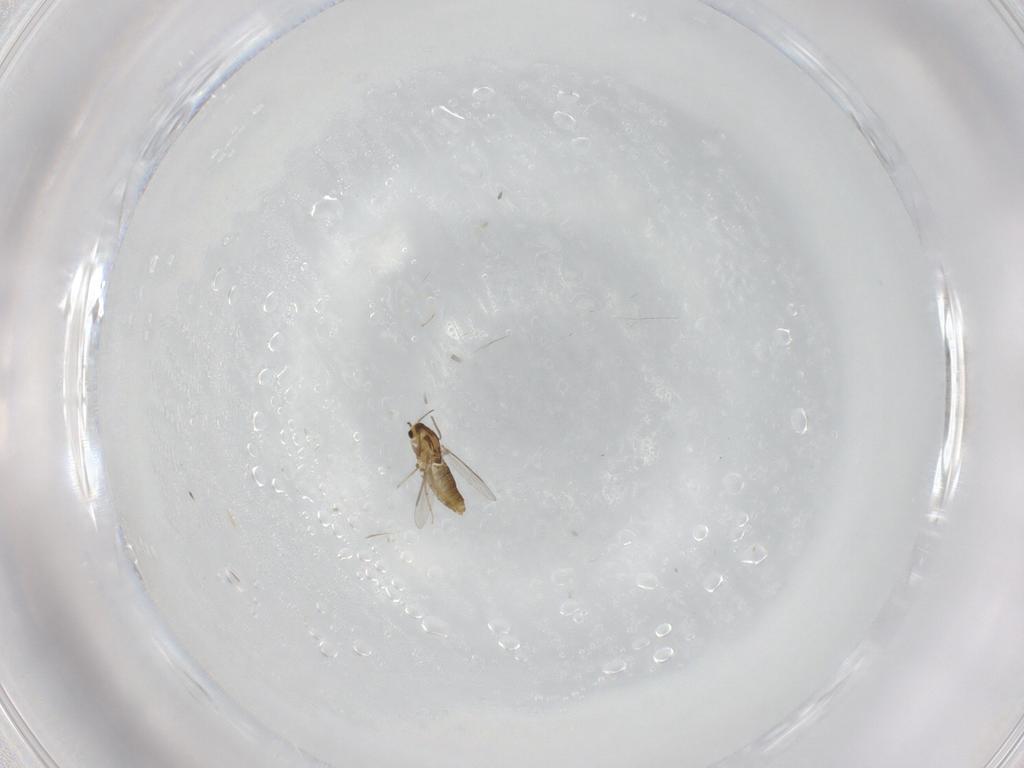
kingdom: Animalia
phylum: Arthropoda
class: Insecta
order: Diptera
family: Chironomidae
